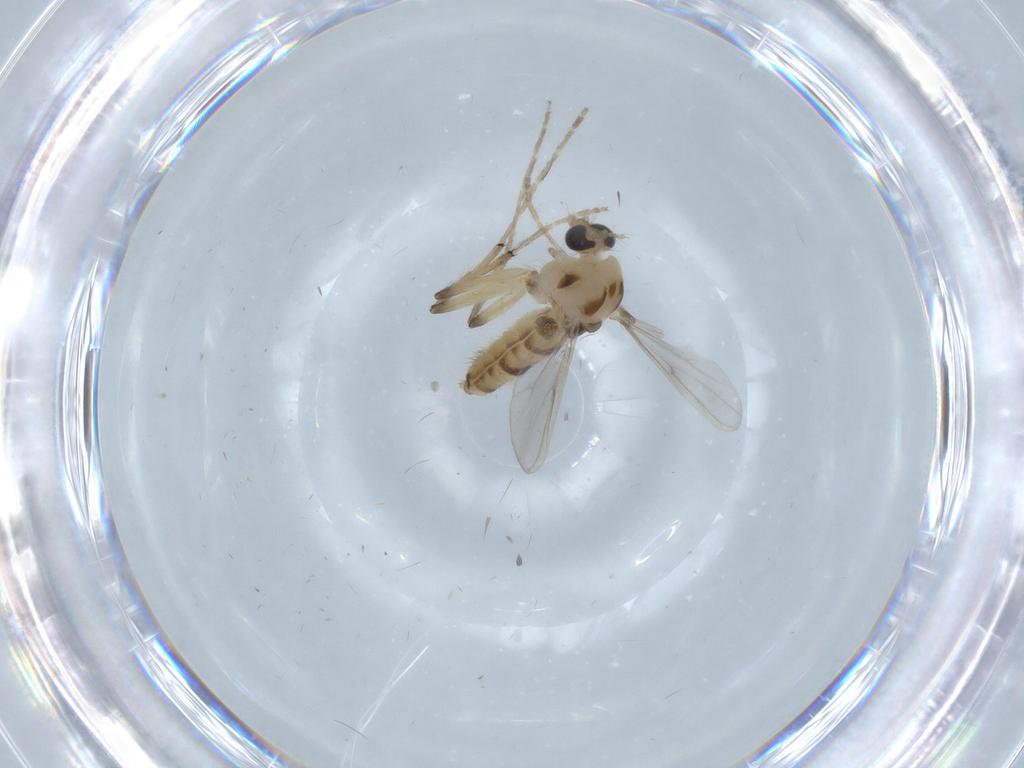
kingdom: Animalia
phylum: Arthropoda
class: Insecta
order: Diptera
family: Chironomidae
